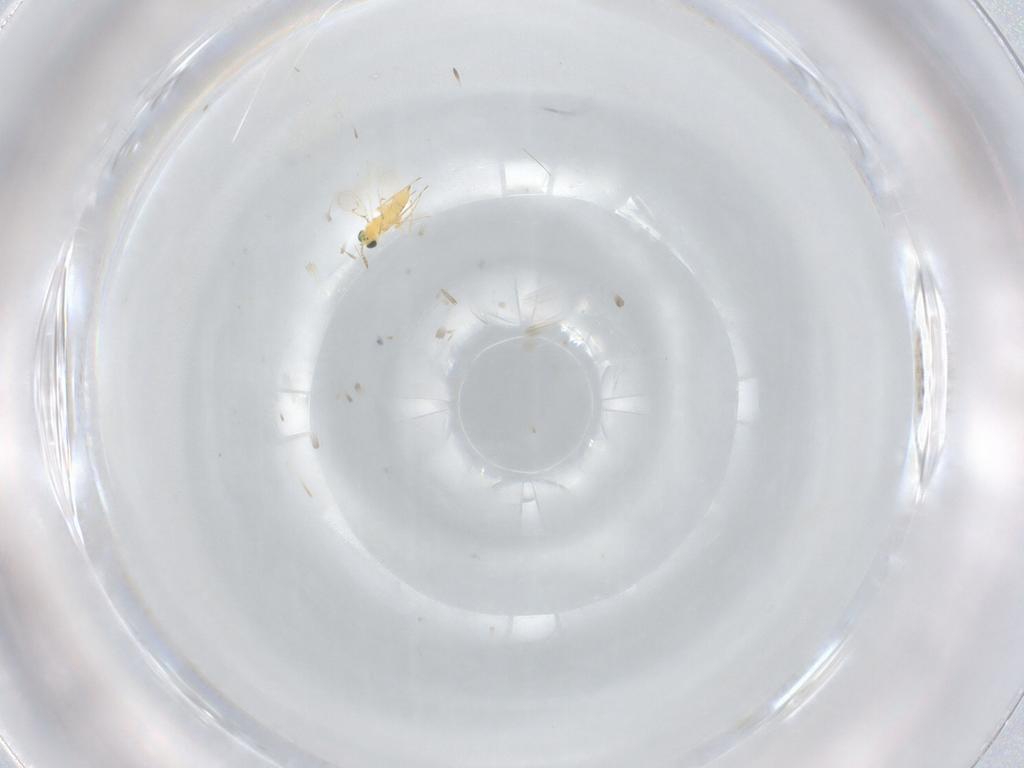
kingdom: Animalia
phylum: Arthropoda
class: Insecta
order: Hymenoptera
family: Trichogrammatidae
